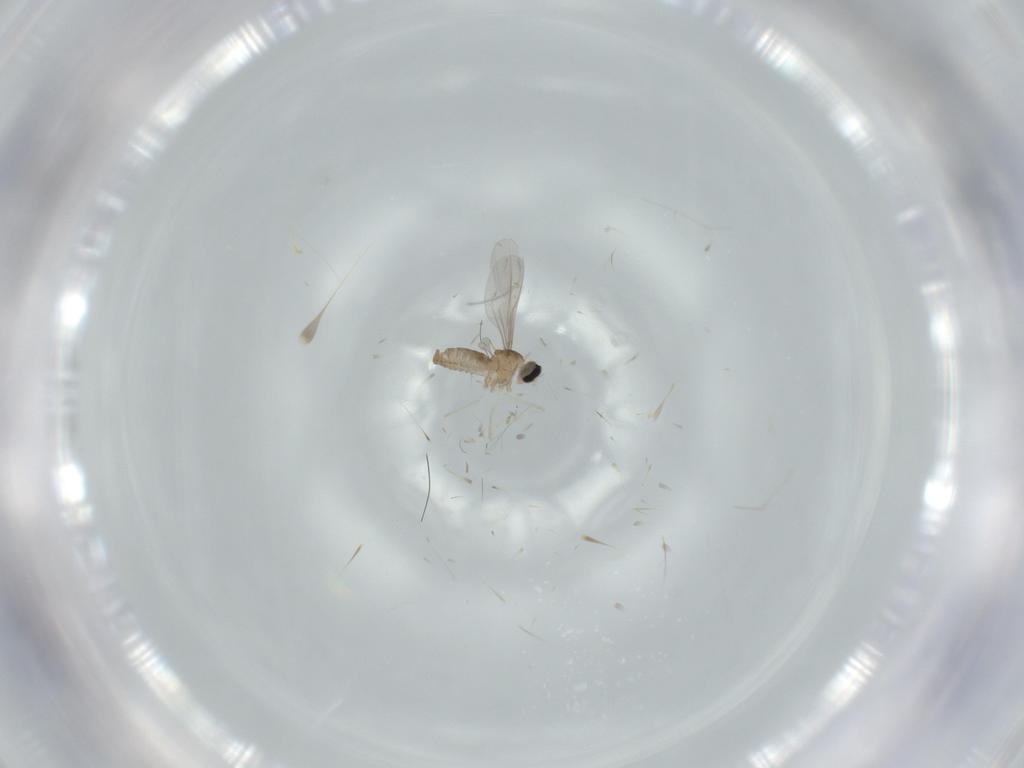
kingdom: Animalia
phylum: Arthropoda
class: Insecta
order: Diptera
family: Cecidomyiidae
